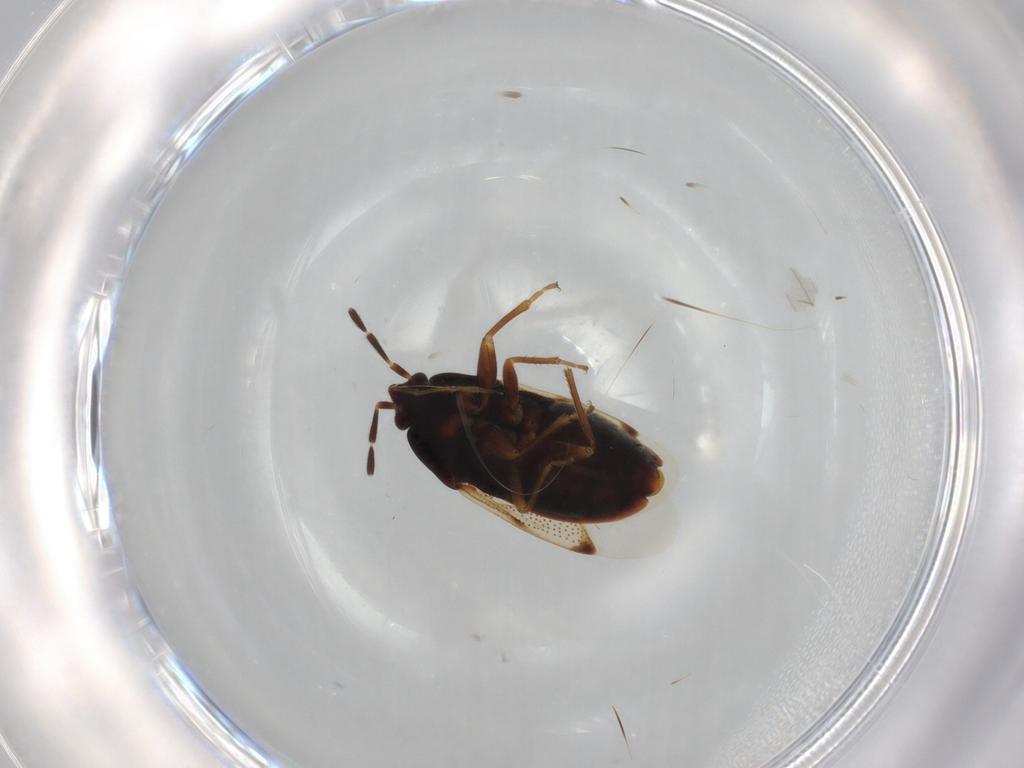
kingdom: Animalia
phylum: Arthropoda
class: Insecta
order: Hemiptera
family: Rhyparochromidae
